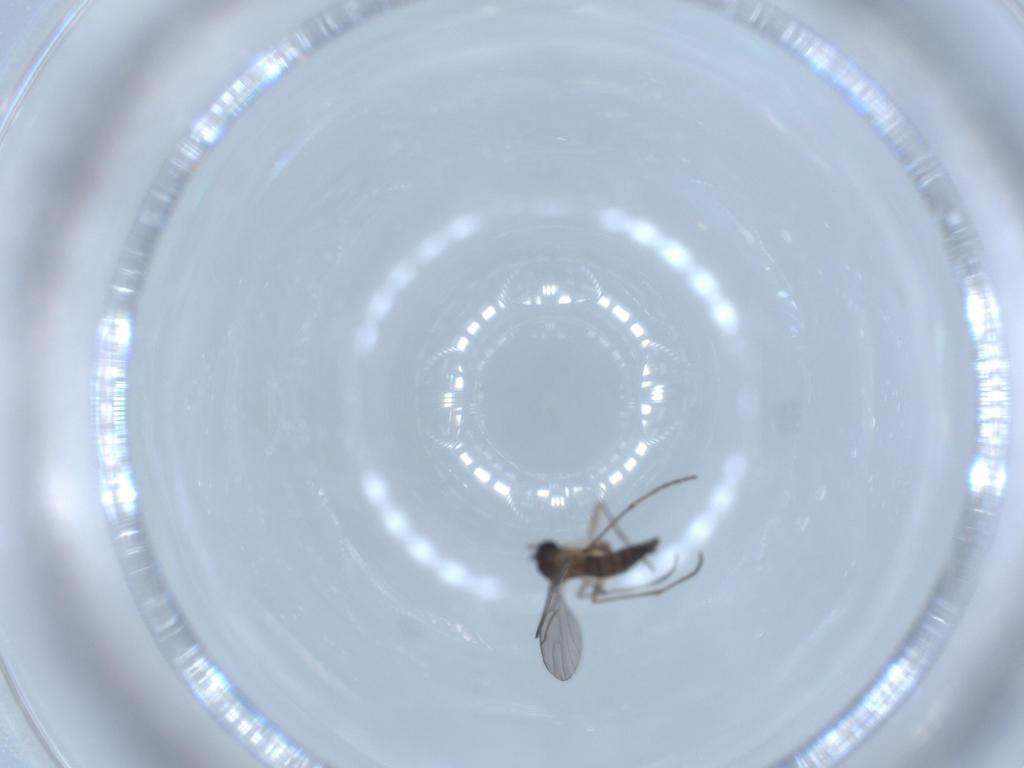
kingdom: Animalia
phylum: Arthropoda
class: Insecta
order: Diptera
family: Sciaridae
